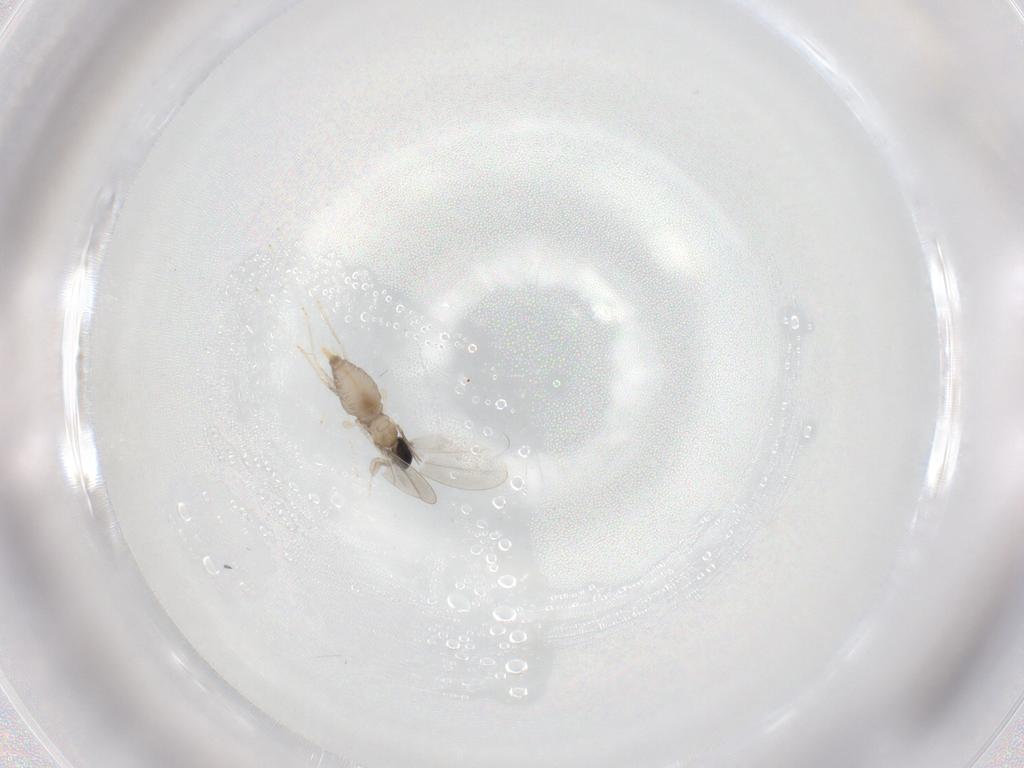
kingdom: Animalia
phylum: Arthropoda
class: Insecta
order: Diptera
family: Cecidomyiidae
